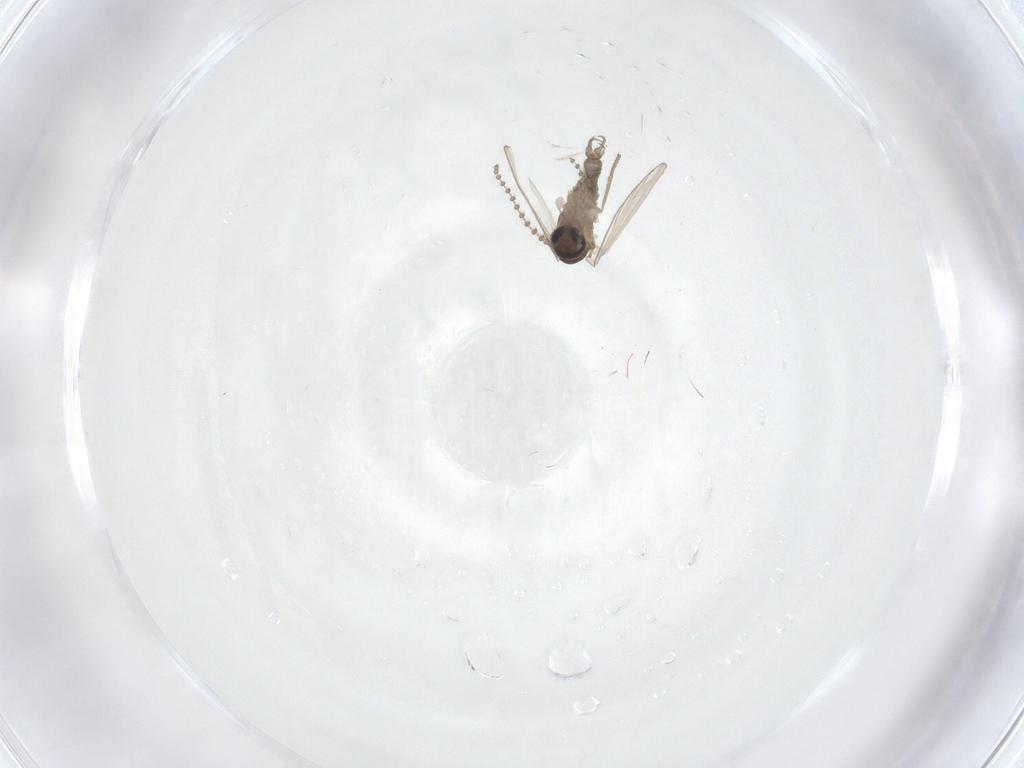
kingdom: Animalia
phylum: Arthropoda
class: Insecta
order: Diptera
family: Psychodidae
